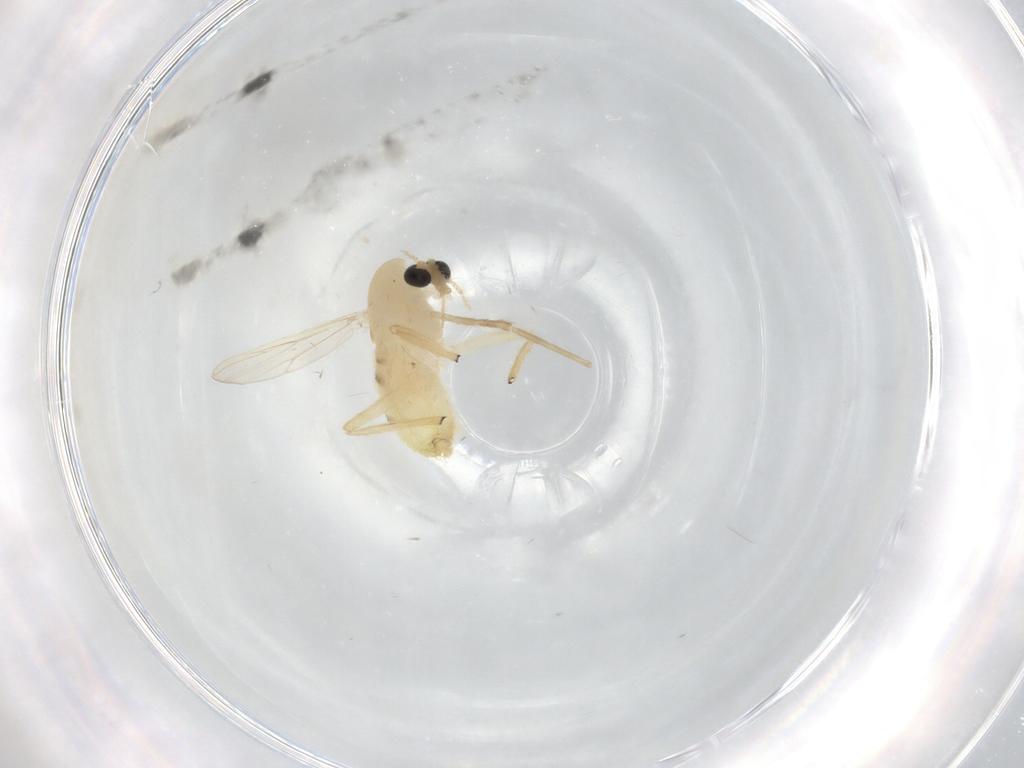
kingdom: Animalia
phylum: Arthropoda
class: Insecta
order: Diptera
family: Chironomidae
